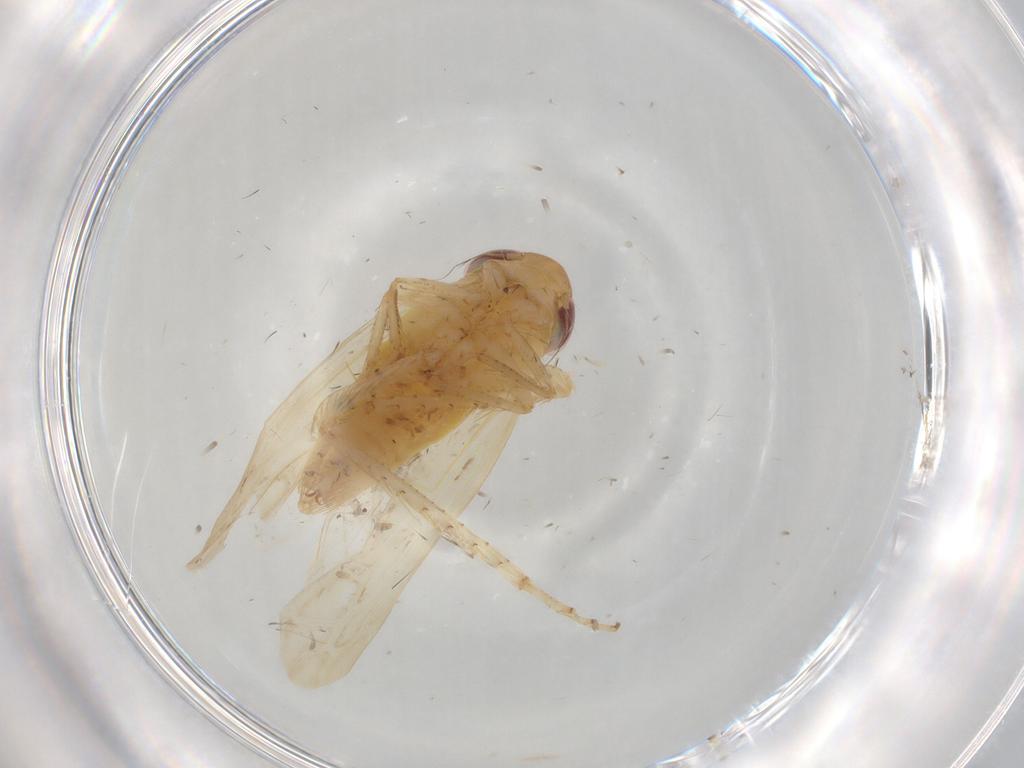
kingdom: Animalia
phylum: Arthropoda
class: Insecta
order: Hemiptera
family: Cicadellidae
